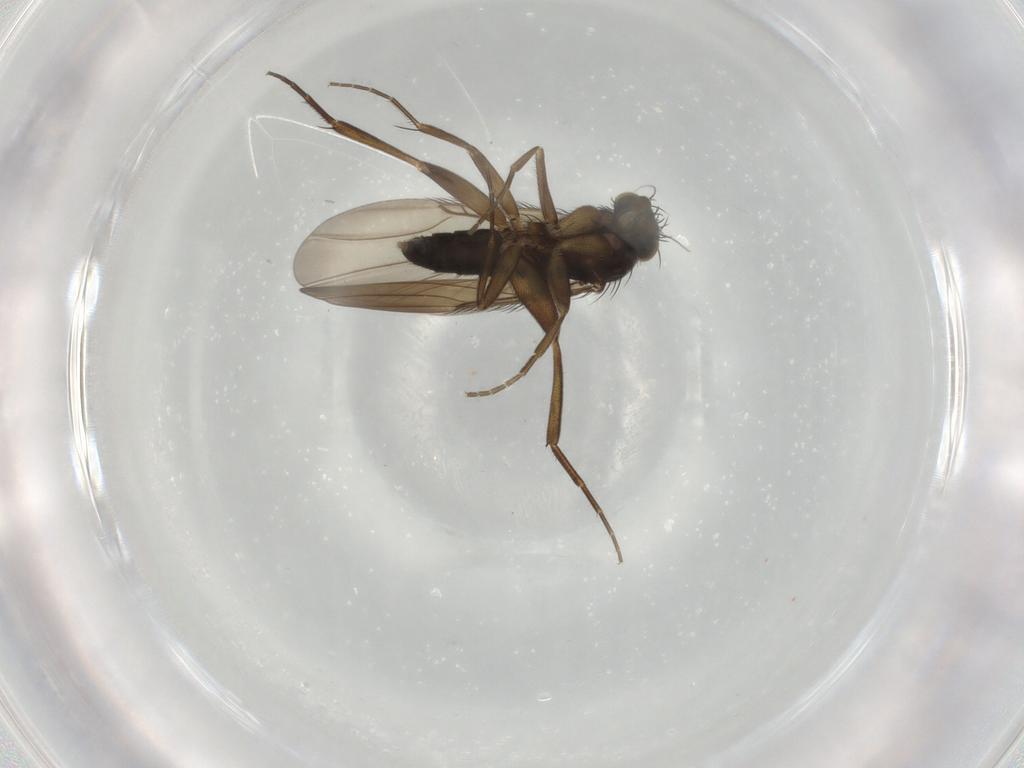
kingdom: Animalia
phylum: Arthropoda
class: Insecta
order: Diptera
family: Phoridae
